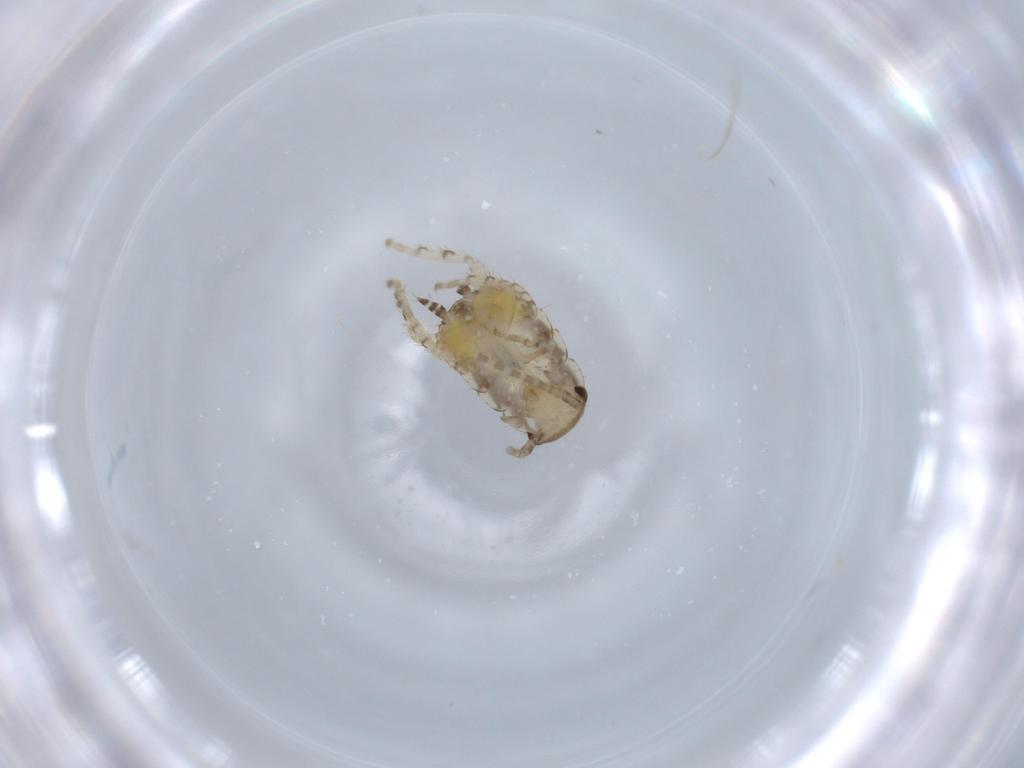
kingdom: Animalia
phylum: Arthropoda
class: Insecta
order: Blattodea
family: Ectobiidae
